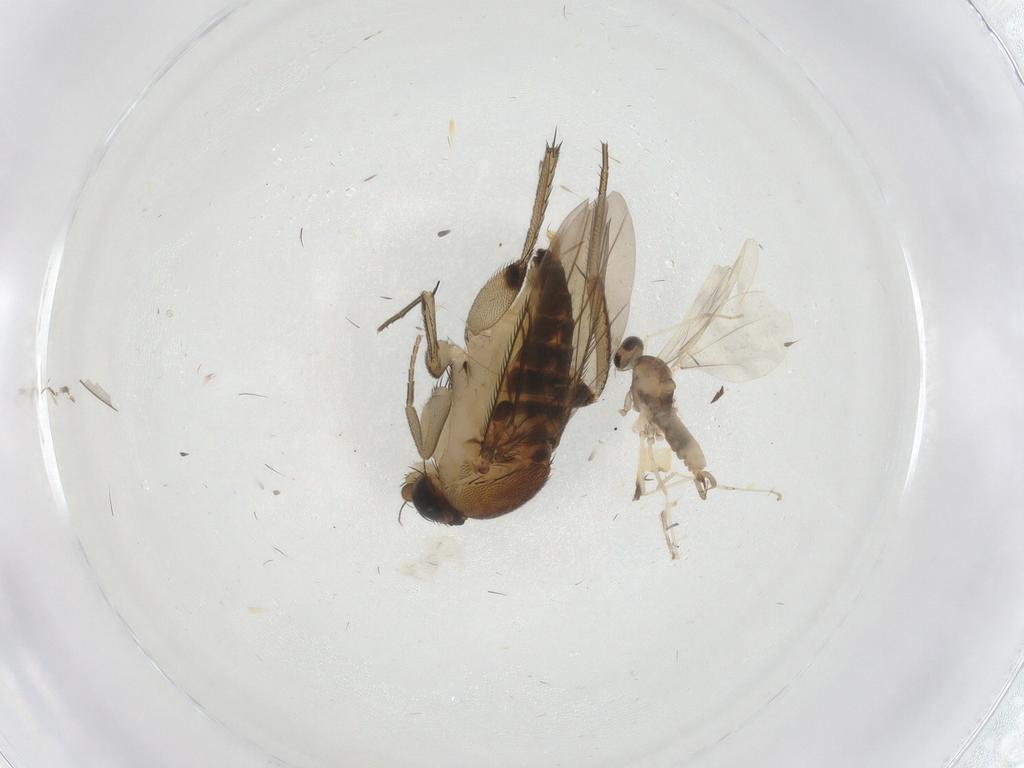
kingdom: Animalia
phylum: Arthropoda
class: Insecta
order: Diptera
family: Phoridae
